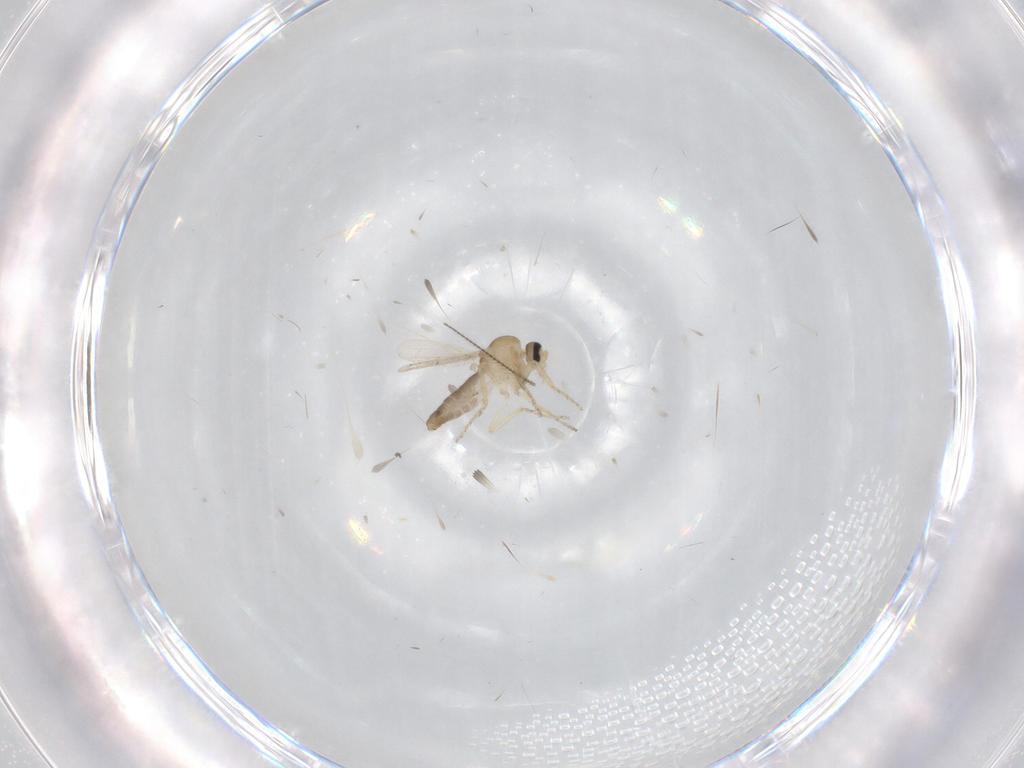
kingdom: Animalia
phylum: Arthropoda
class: Insecta
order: Diptera
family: Ceratopogonidae
